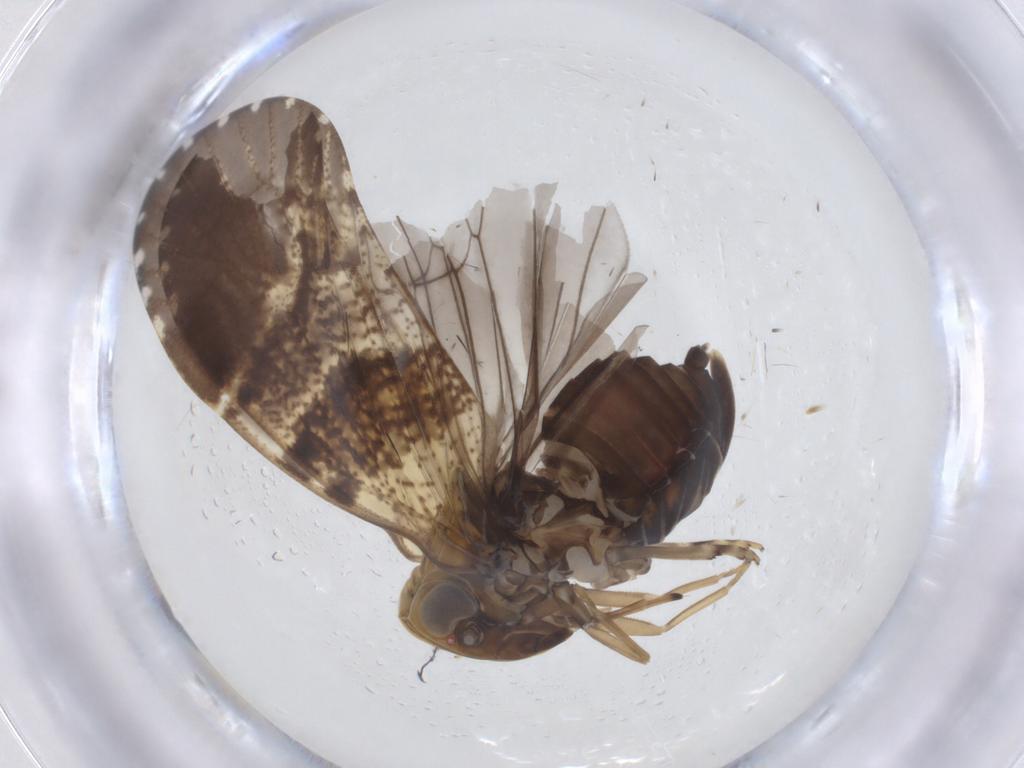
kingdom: Animalia
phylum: Arthropoda
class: Insecta
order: Hemiptera
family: Cixiidae
